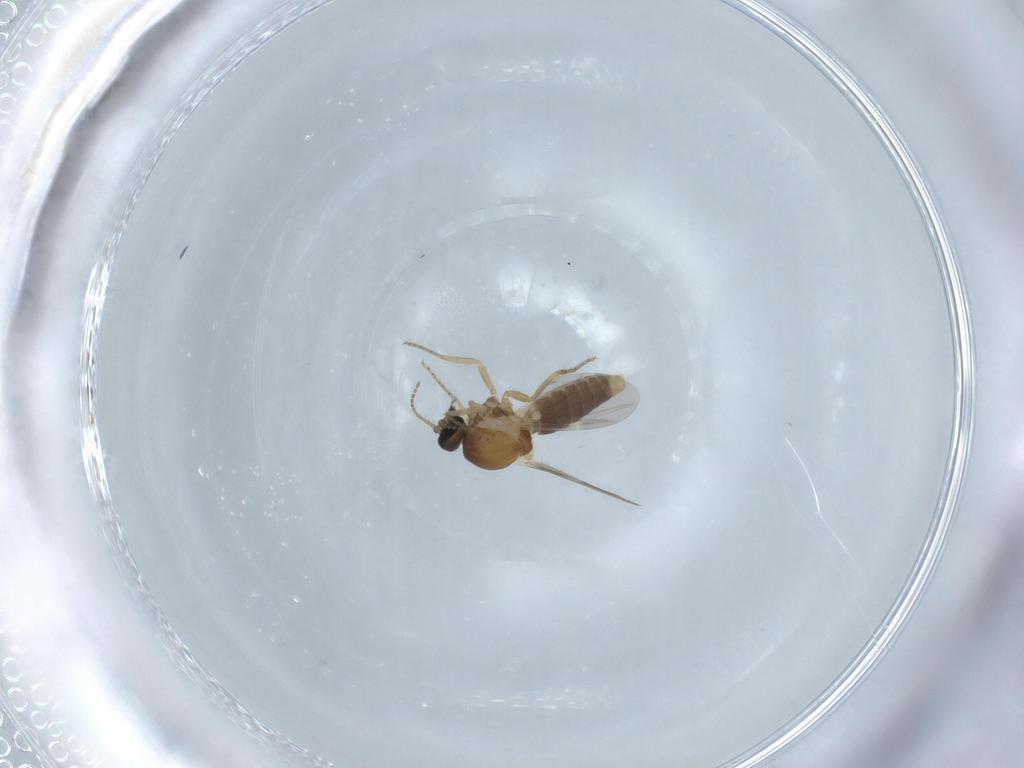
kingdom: Animalia
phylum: Arthropoda
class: Insecta
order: Diptera
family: Ceratopogonidae
